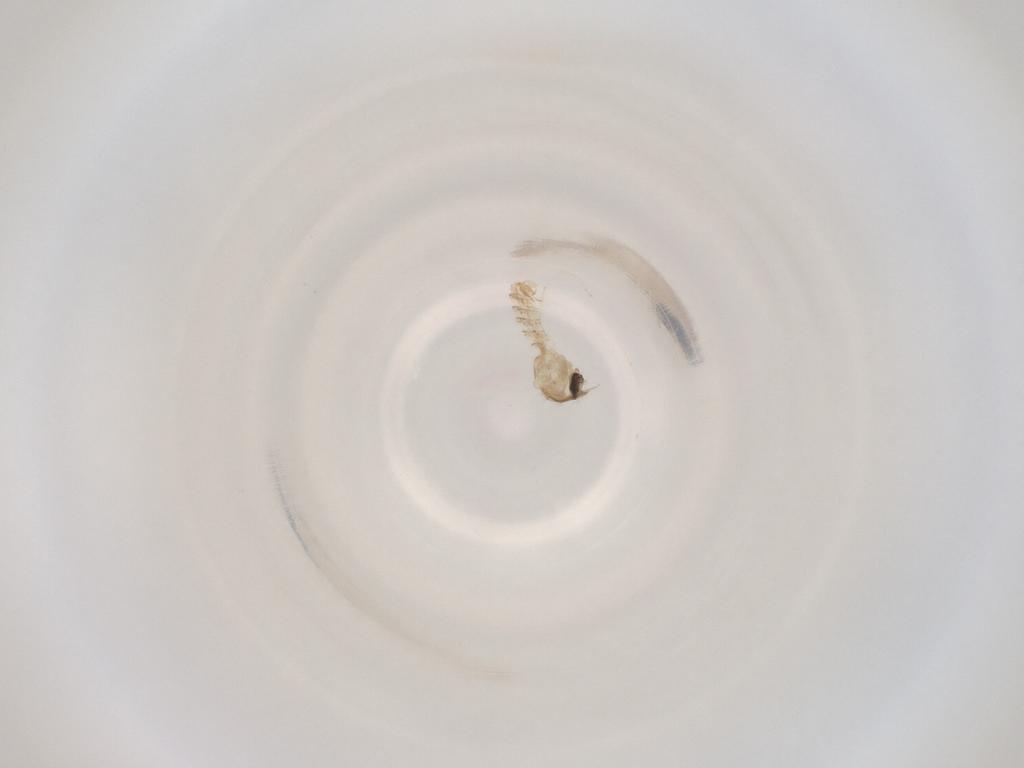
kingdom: Animalia
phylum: Arthropoda
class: Insecta
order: Diptera
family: Cecidomyiidae
